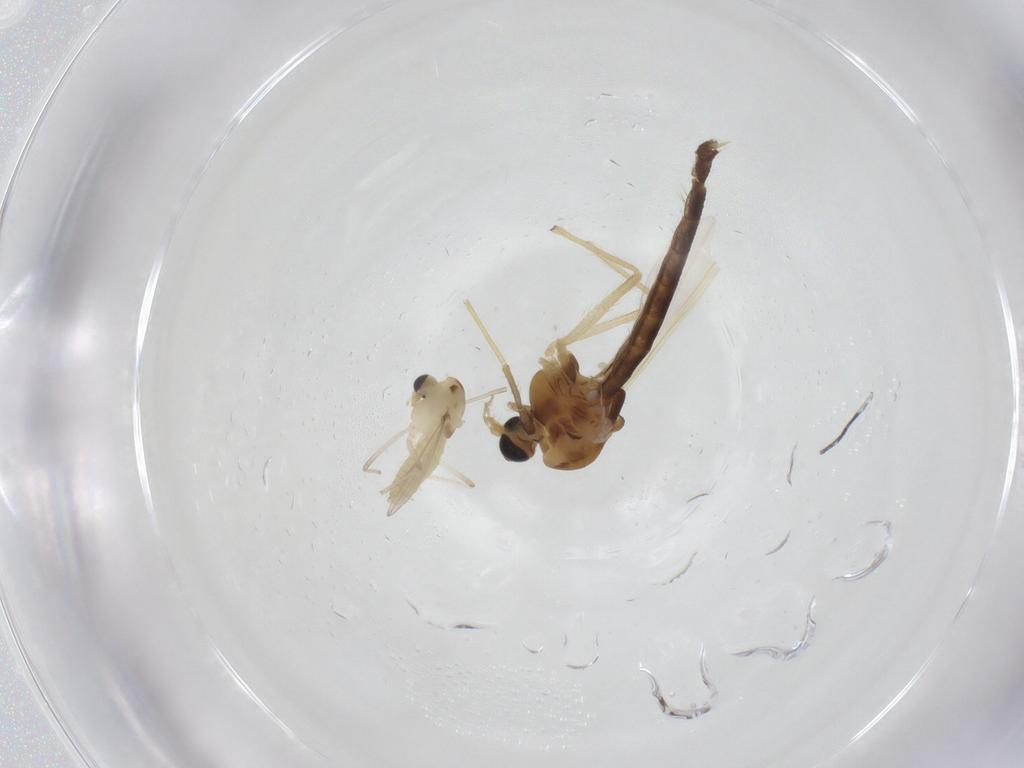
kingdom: Animalia
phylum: Arthropoda
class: Insecta
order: Diptera
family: Chironomidae
